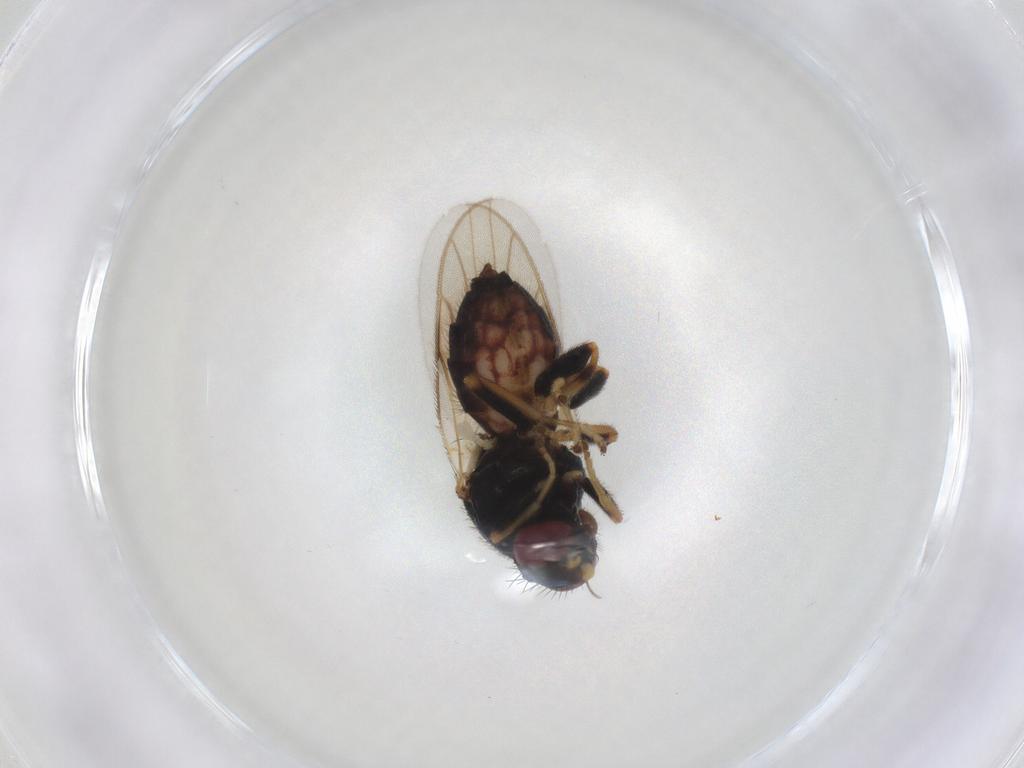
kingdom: Animalia
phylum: Arthropoda
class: Insecta
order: Diptera
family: Chloropidae
